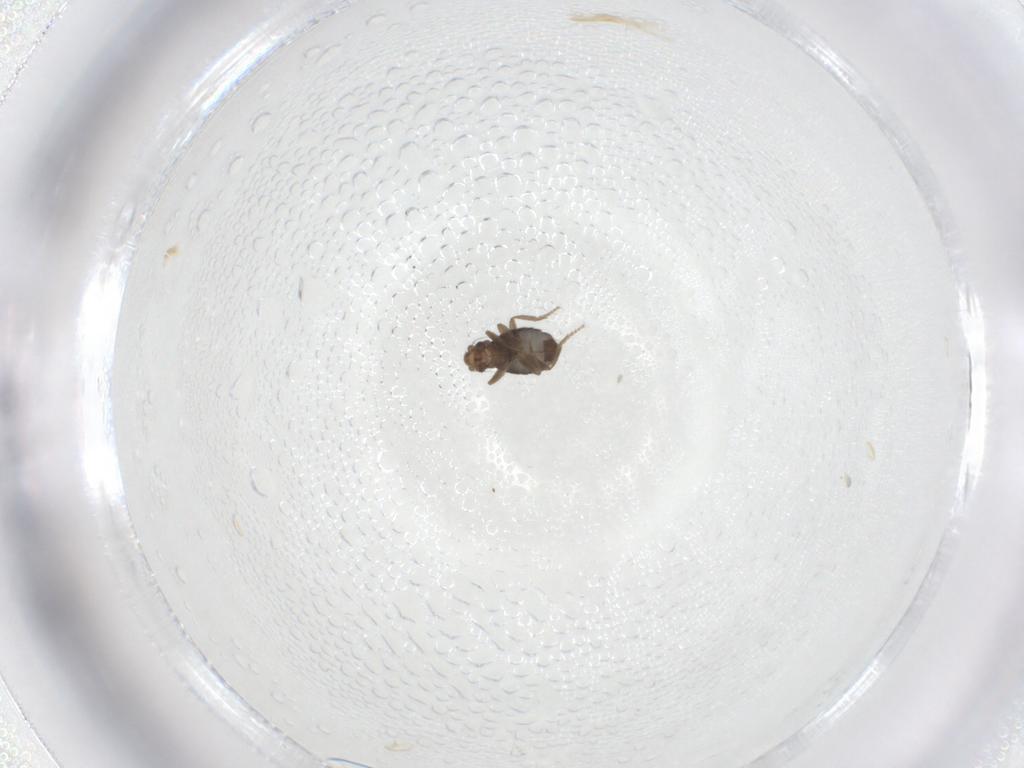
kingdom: Animalia
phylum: Arthropoda
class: Insecta
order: Diptera
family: Phoridae
